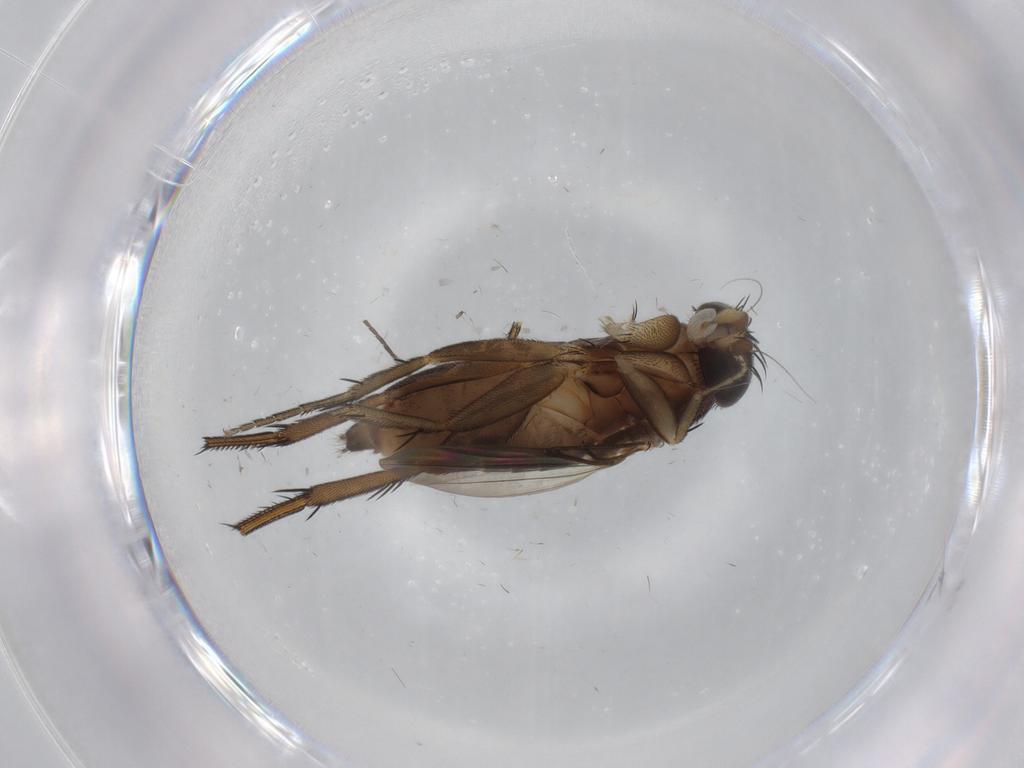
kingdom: Animalia
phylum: Arthropoda
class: Insecta
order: Diptera
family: Phoridae
